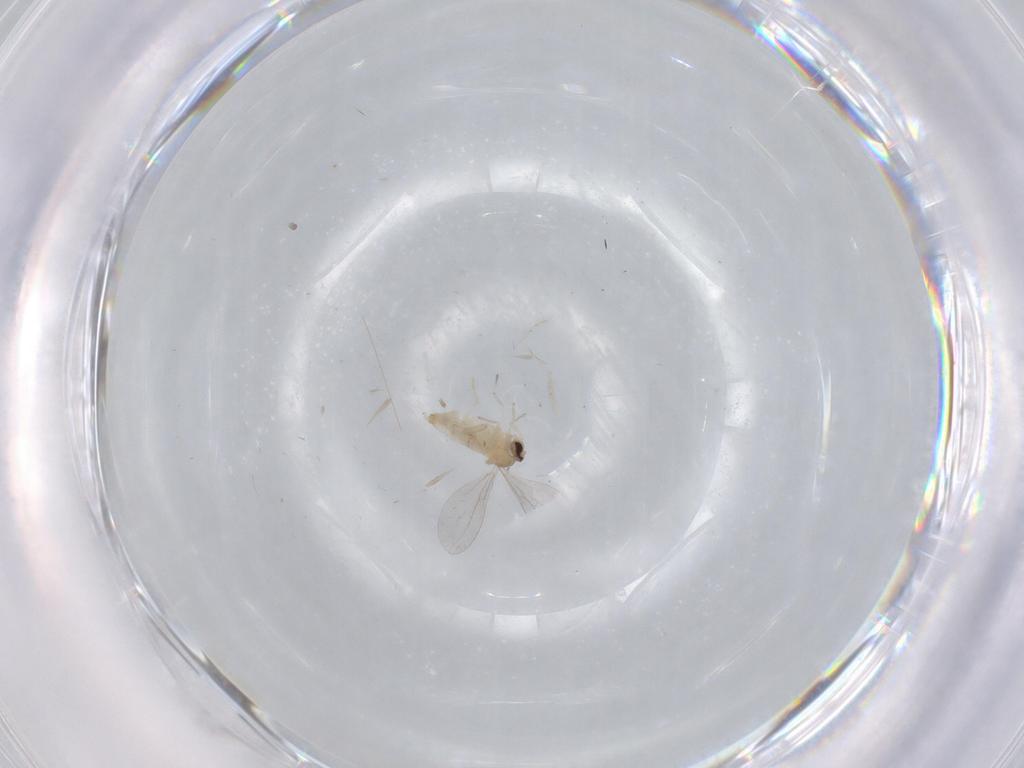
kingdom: Animalia
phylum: Arthropoda
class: Insecta
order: Diptera
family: Cecidomyiidae
